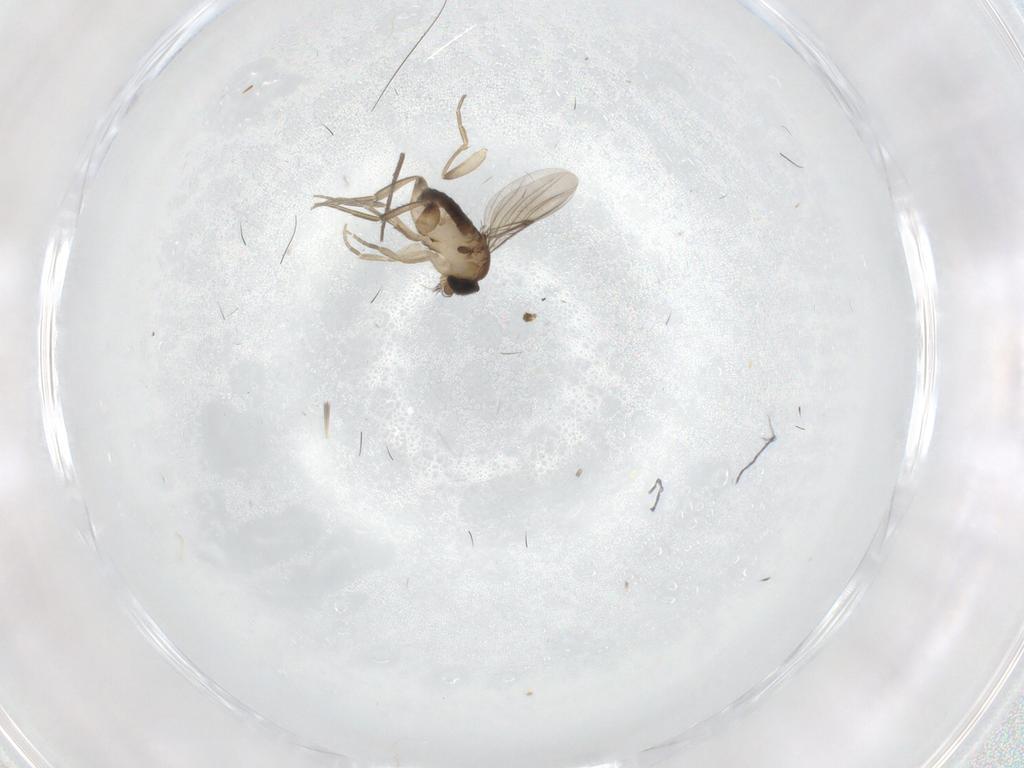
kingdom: Animalia
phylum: Arthropoda
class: Insecta
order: Diptera
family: Phoridae
